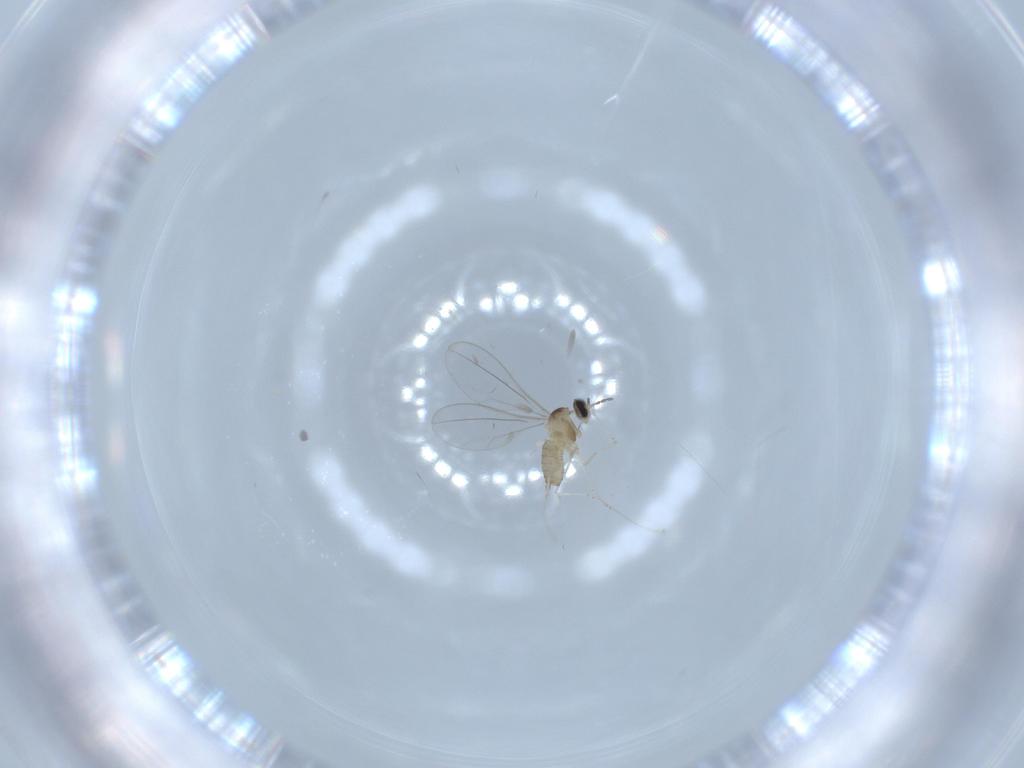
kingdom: Animalia
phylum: Arthropoda
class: Insecta
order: Diptera
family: Cecidomyiidae
